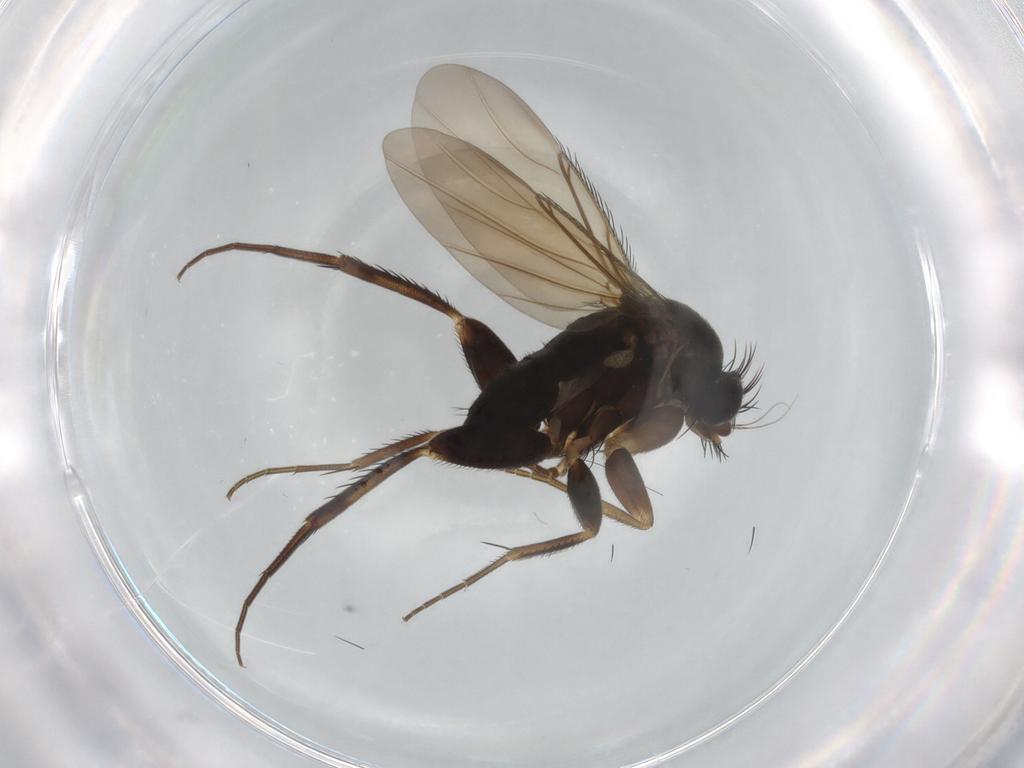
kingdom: Animalia
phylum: Arthropoda
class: Insecta
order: Diptera
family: Phoridae
